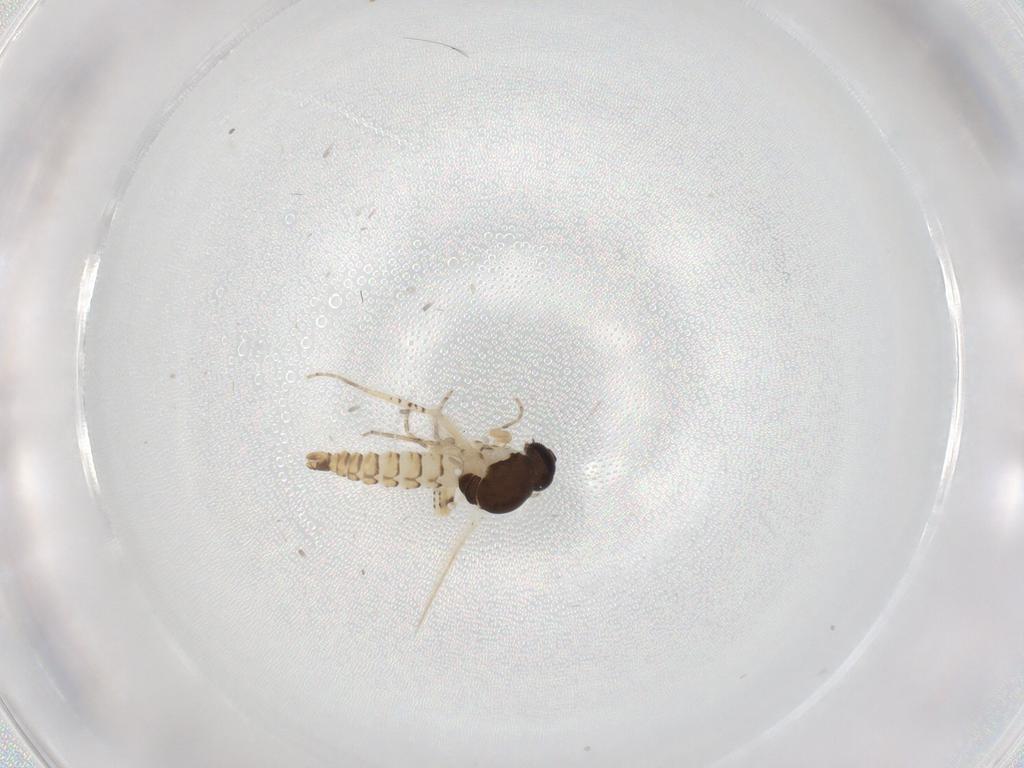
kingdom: Animalia
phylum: Arthropoda
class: Insecta
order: Diptera
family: Ceratopogonidae
